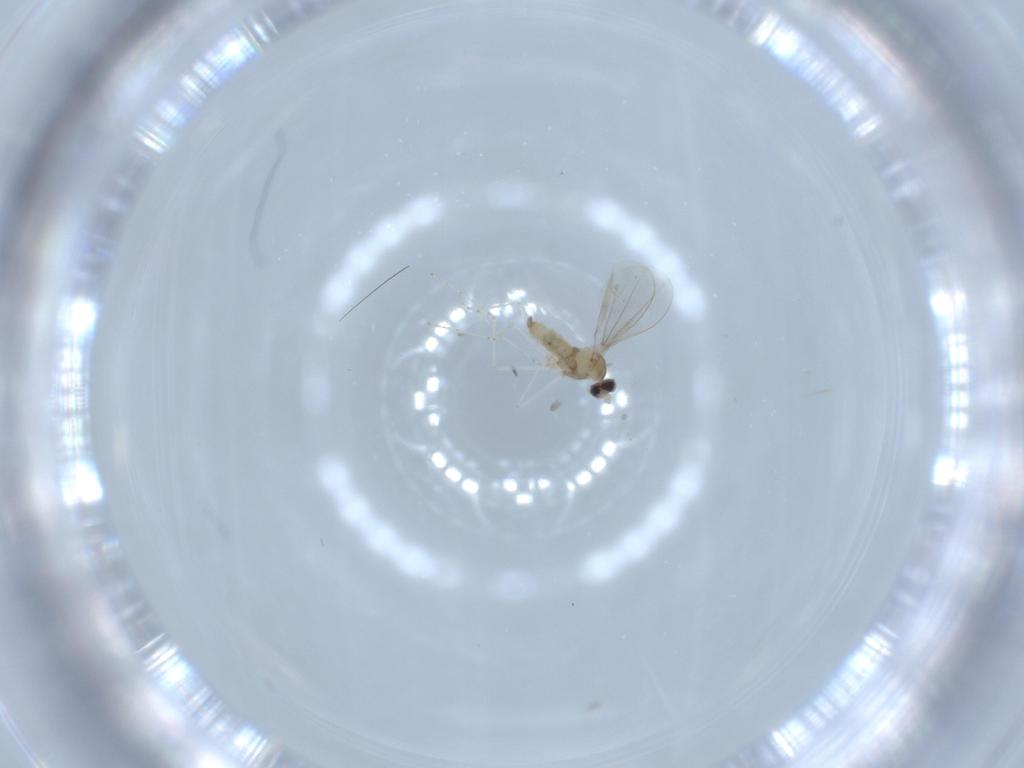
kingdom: Animalia
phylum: Arthropoda
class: Insecta
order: Diptera
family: Cecidomyiidae
